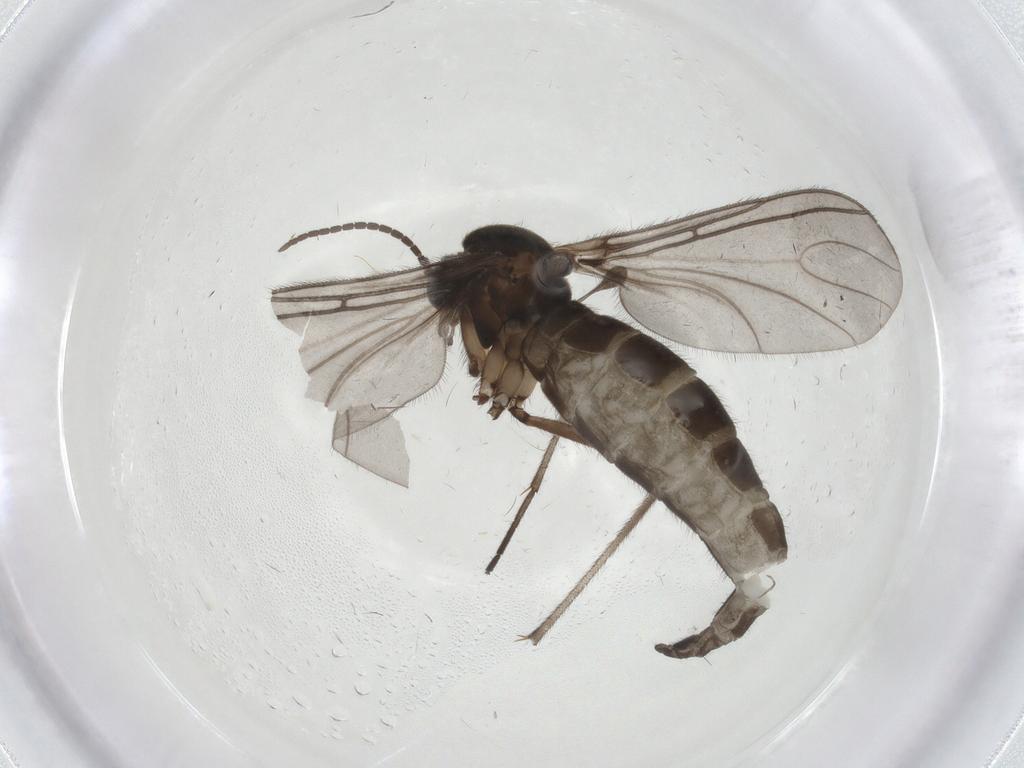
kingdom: Animalia
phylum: Arthropoda
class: Insecta
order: Diptera
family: Sciaridae
